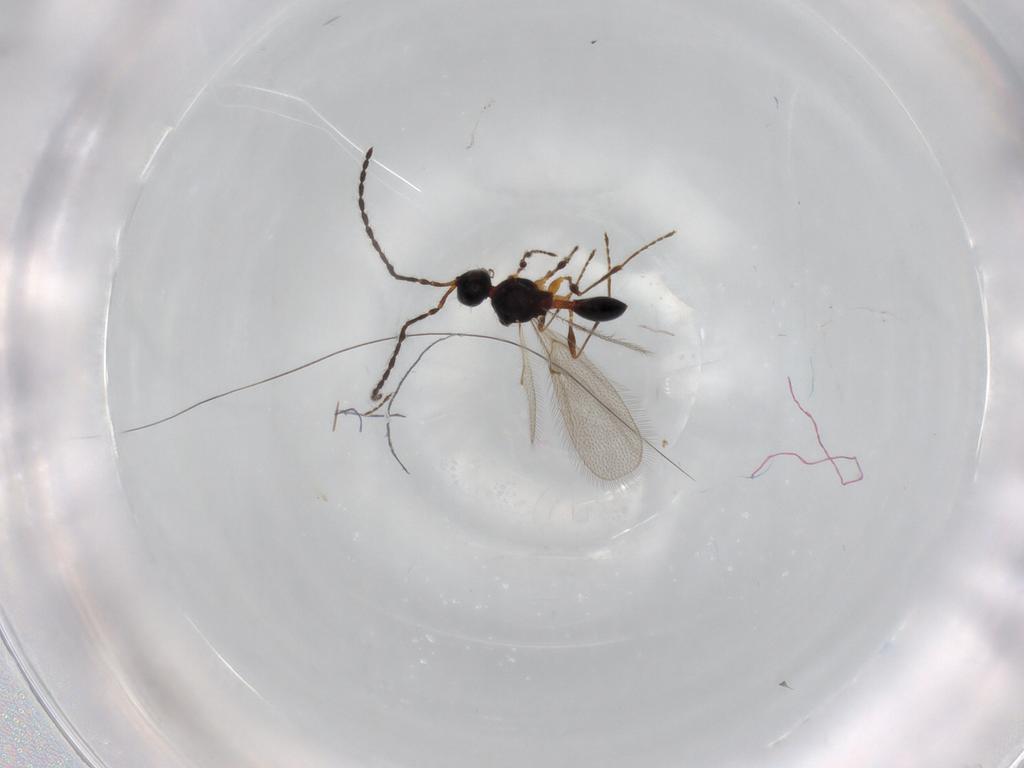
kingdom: Animalia
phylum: Arthropoda
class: Insecta
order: Hymenoptera
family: Diapriidae
